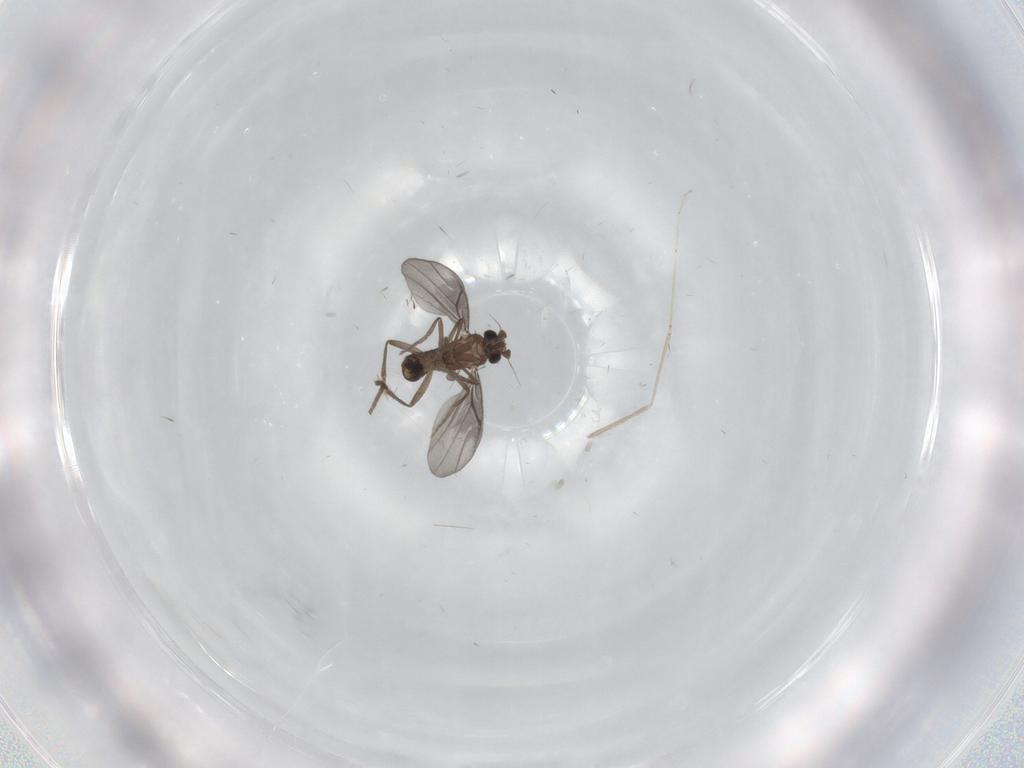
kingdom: Animalia
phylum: Arthropoda
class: Insecta
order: Diptera
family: Phoridae
